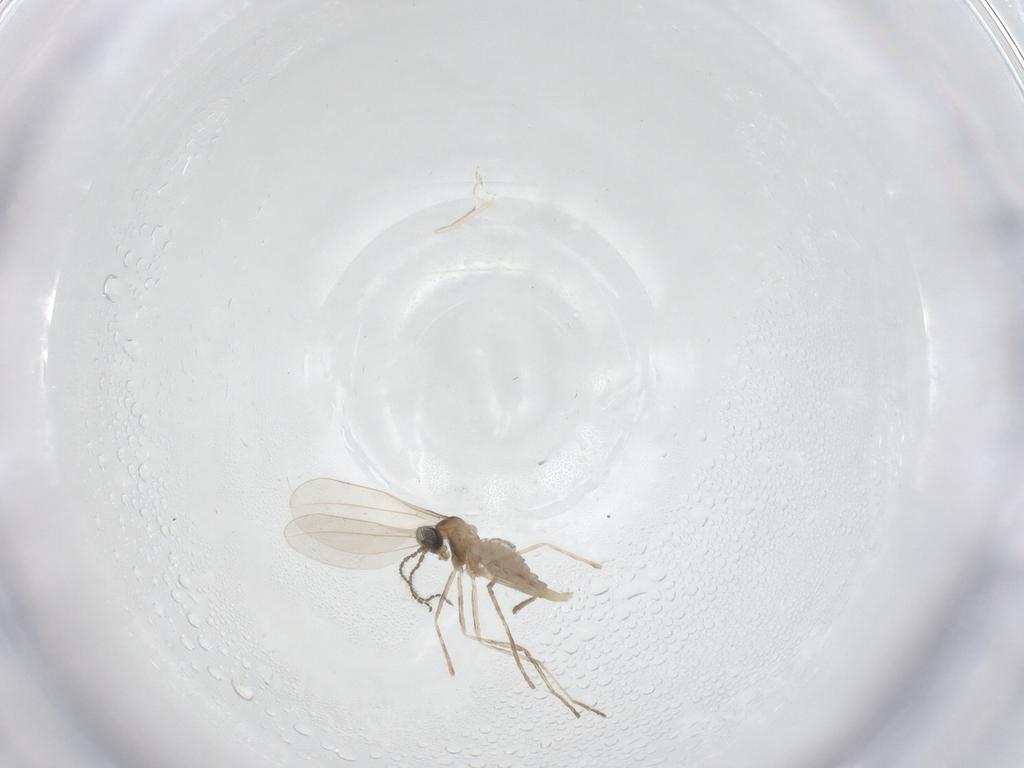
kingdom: Animalia
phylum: Arthropoda
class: Insecta
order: Diptera
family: Cecidomyiidae
